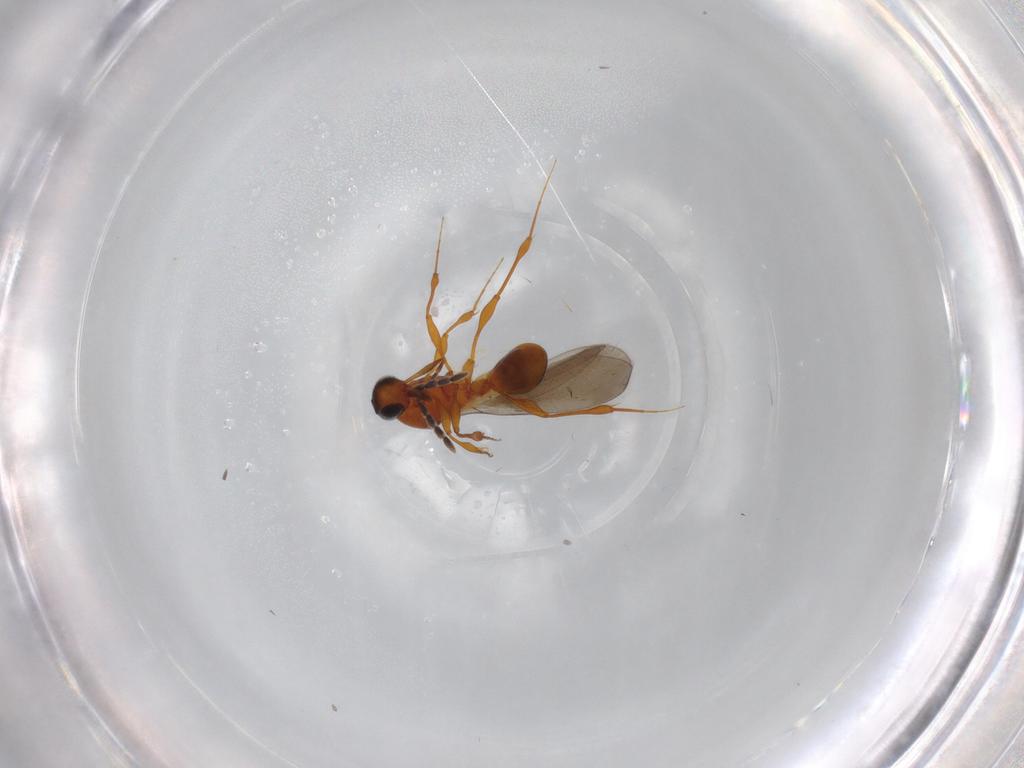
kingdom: Animalia
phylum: Arthropoda
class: Insecta
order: Hymenoptera
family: Platygastridae
